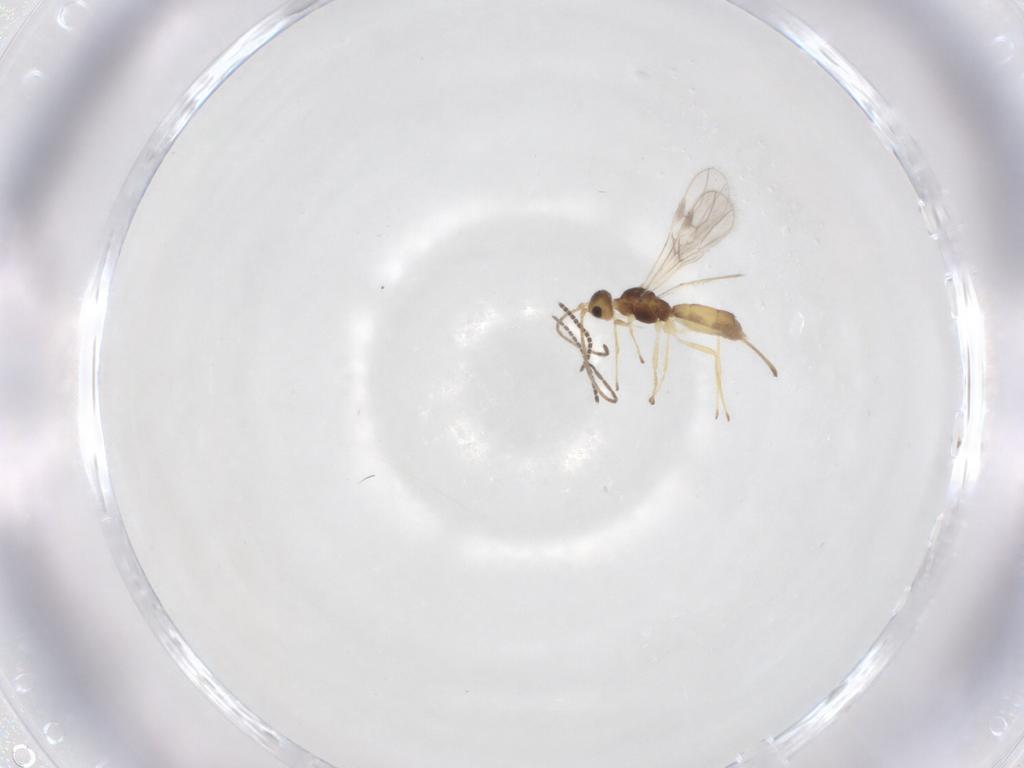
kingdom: Animalia
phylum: Arthropoda
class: Insecta
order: Hymenoptera
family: Braconidae
